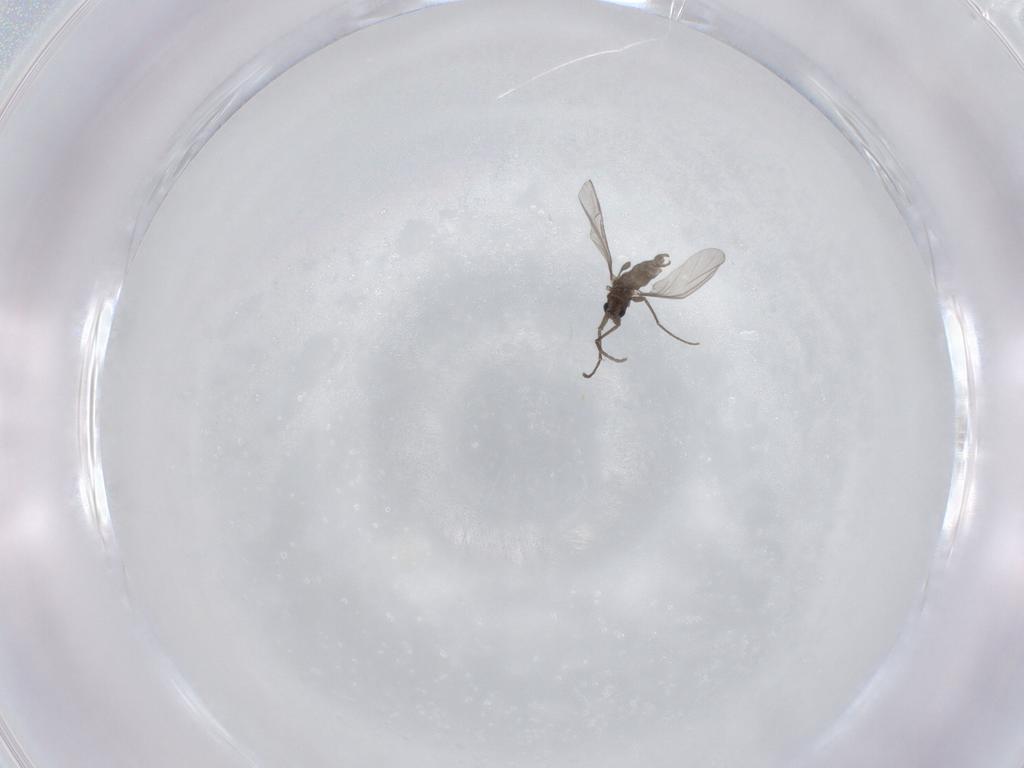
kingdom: Animalia
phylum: Arthropoda
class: Insecta
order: Diptera
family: Sciaridae
